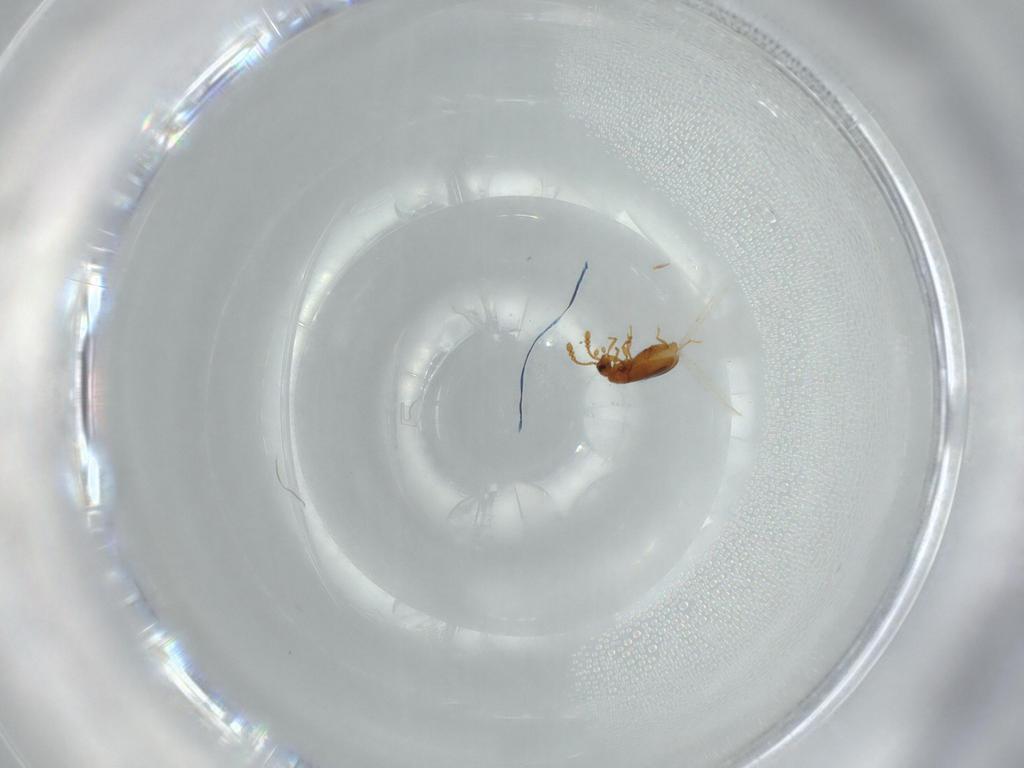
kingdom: Animalia
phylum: Arthropoda
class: Insecta
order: Coleoptera
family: Staphylinidae
